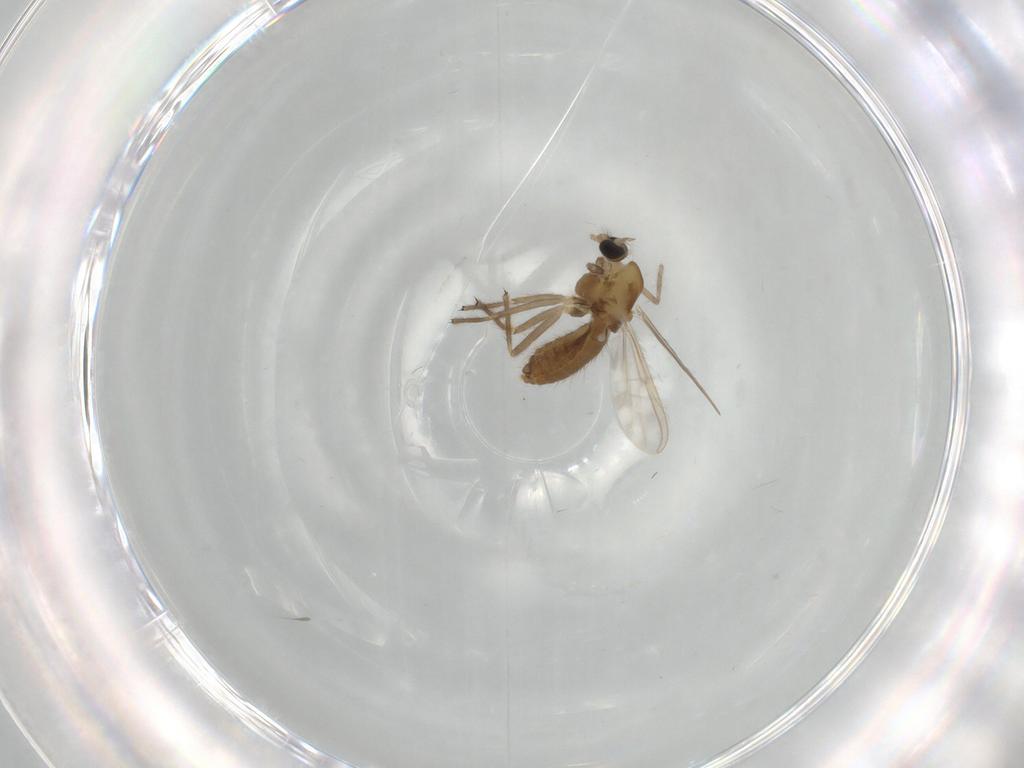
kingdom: Animalia
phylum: Arthropoda
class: Insecta
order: Diptera
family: Chironomidae
